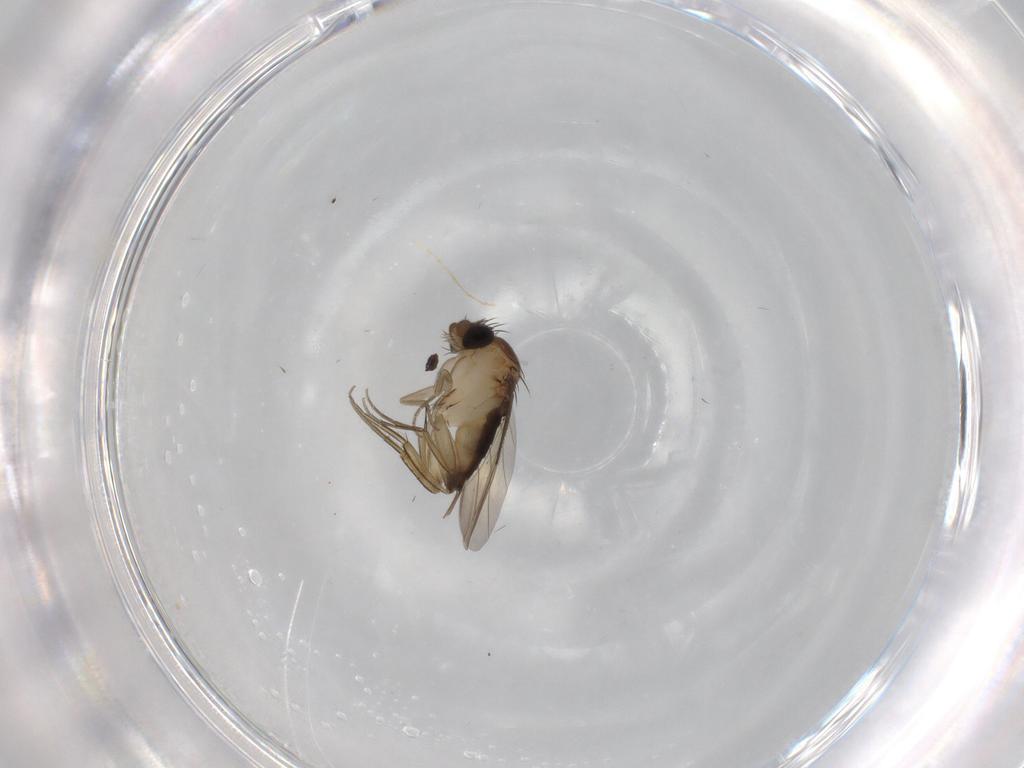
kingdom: Animalia
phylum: Arthropoda
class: Insecta
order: Diptera
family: Phoridae
